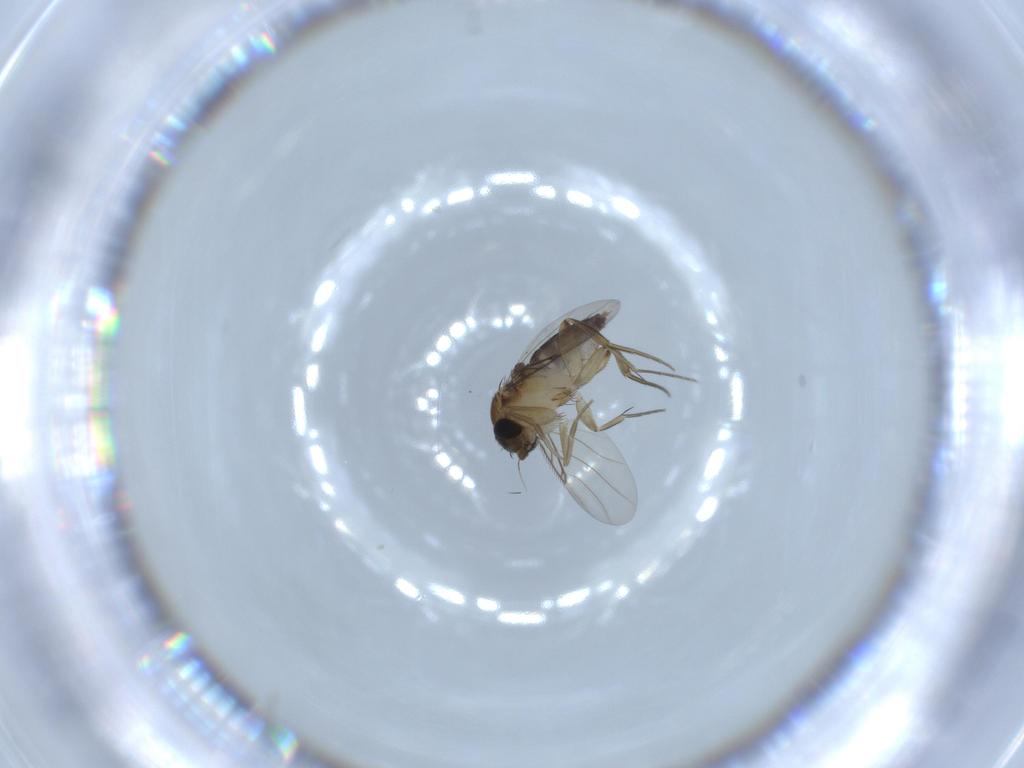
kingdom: Animalia
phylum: Arthropoda
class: Insecta
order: Diptera
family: Phoridae
